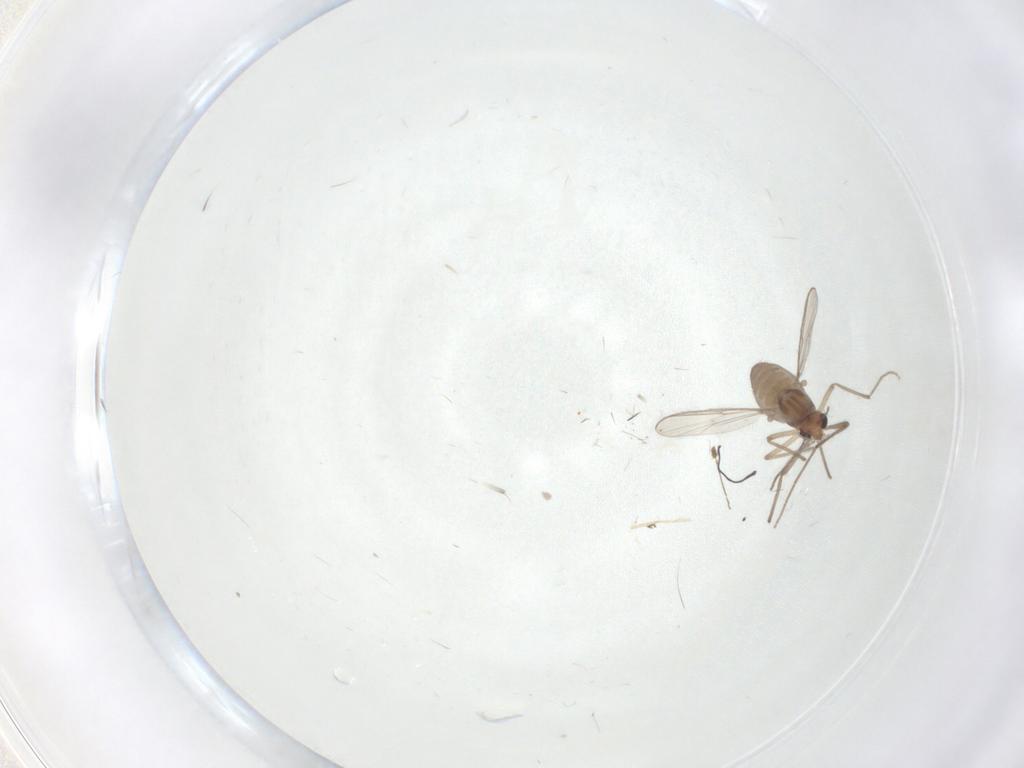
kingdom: Animalia
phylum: Arthropoda
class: Insecta
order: Diptera
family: Chironomidae
